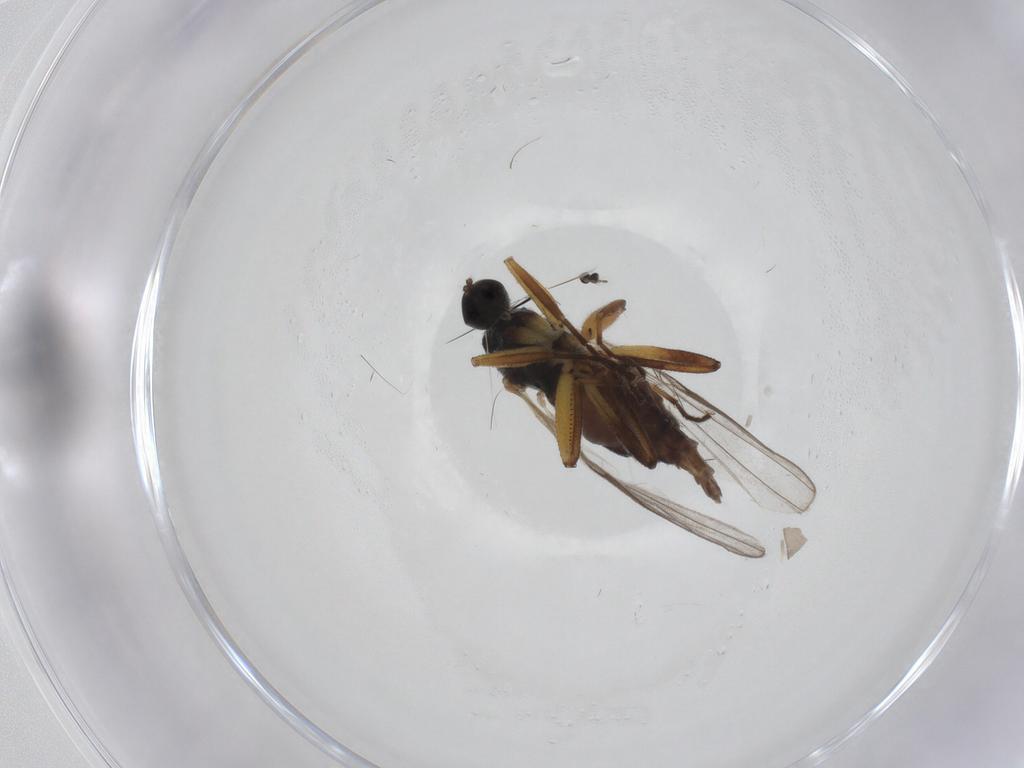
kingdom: Animalia
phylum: Arthropoda
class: Insecta
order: Diptera
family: Hybotidae
